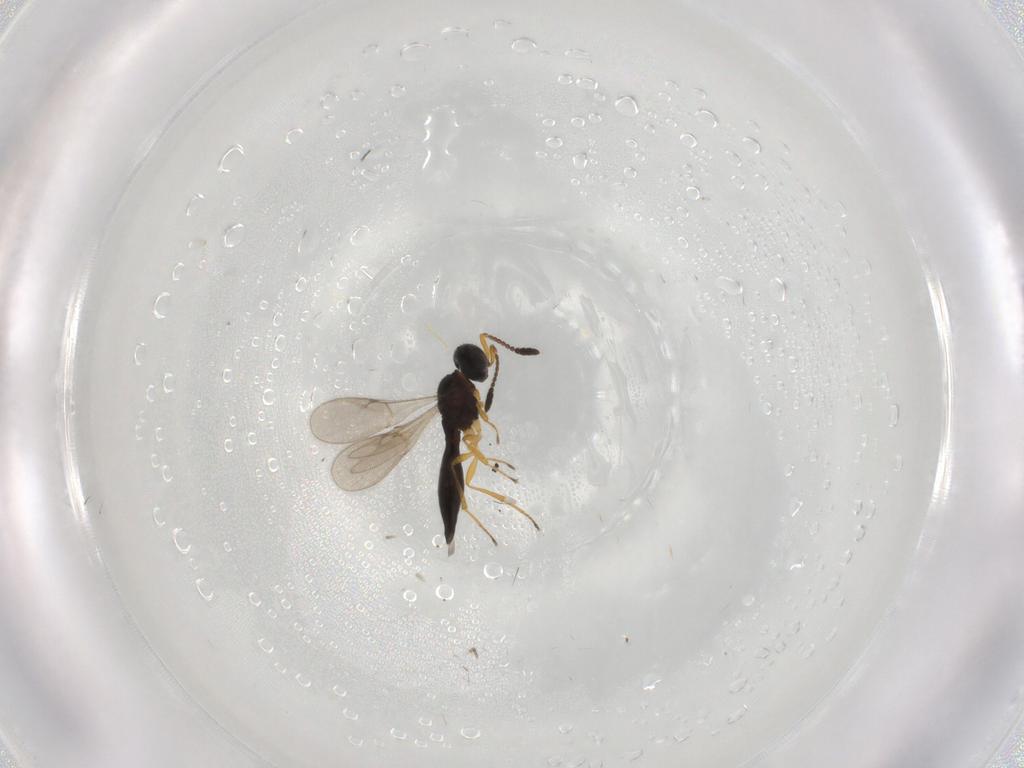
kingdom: Animalia
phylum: Arthropoda
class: Insecta
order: Hymenoptera
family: Scelionidae
